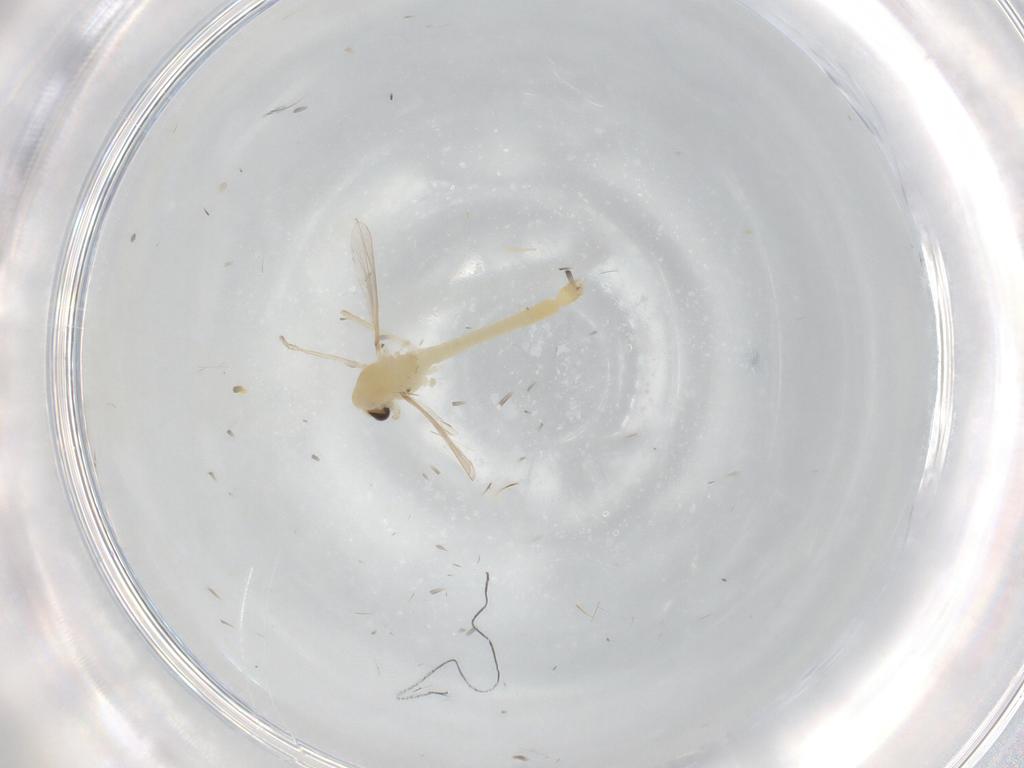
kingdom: Animalia
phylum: Arthropoda
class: Insecta
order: Diptera
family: Chironomidae
